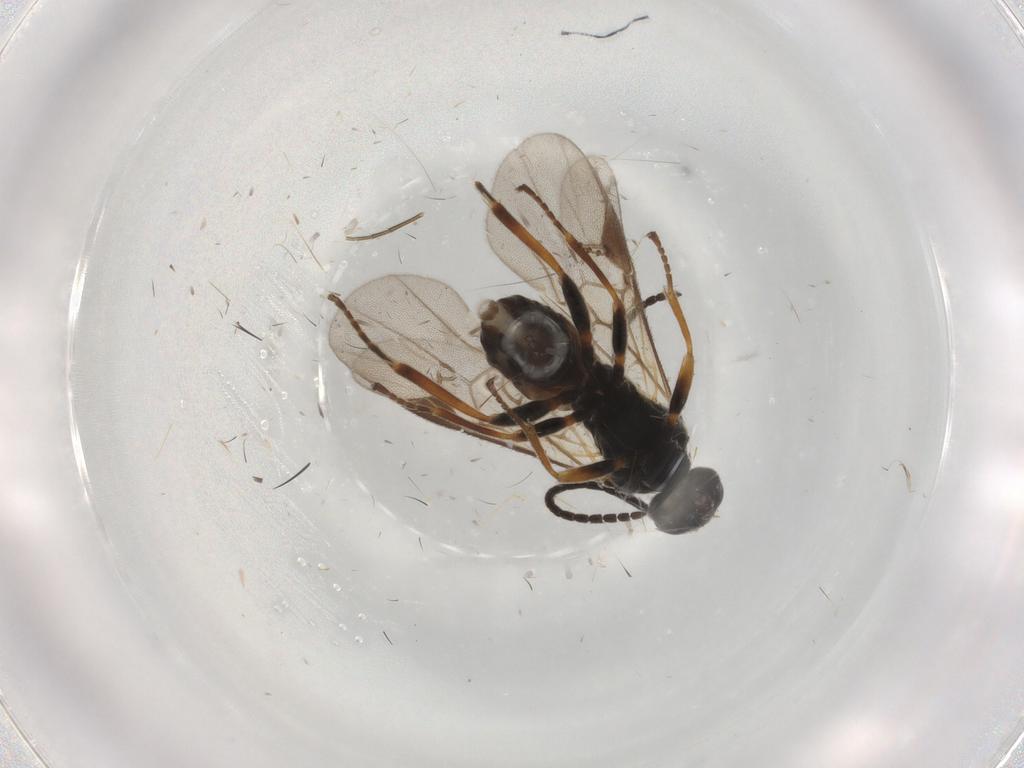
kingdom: Animalia
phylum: Arthropoda
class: Insecta
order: Hymenoptera
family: Braconidae
